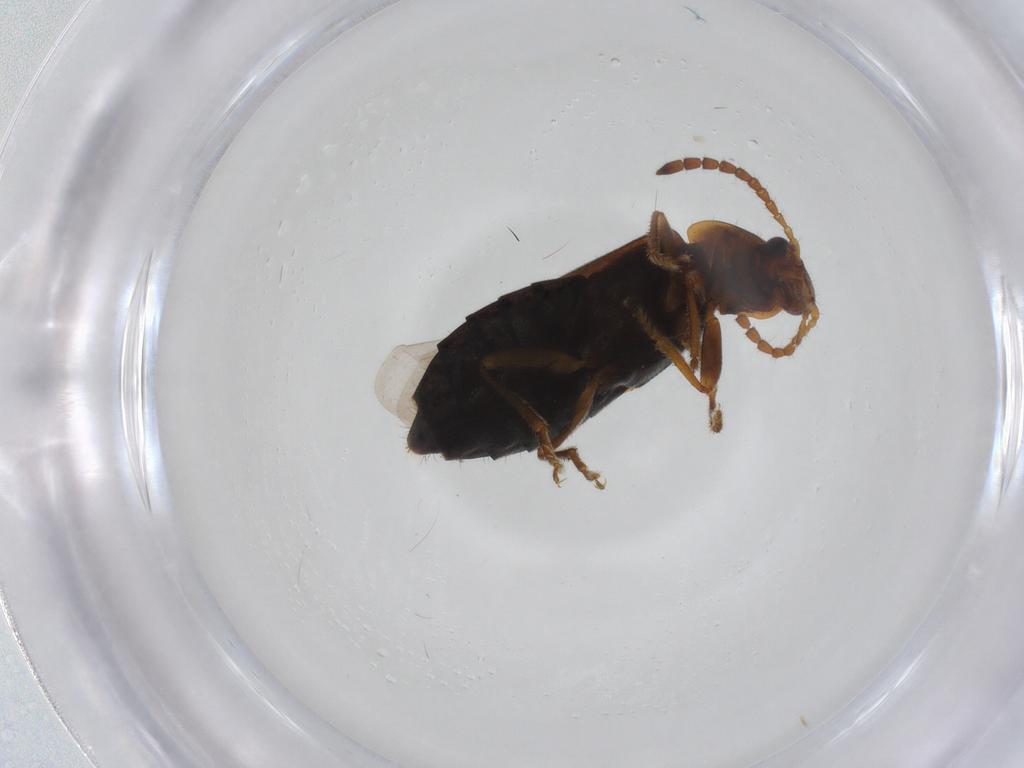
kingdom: Animalia
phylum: Arthropoda
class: Insecta
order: Coleoptera
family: Staphylinidae
